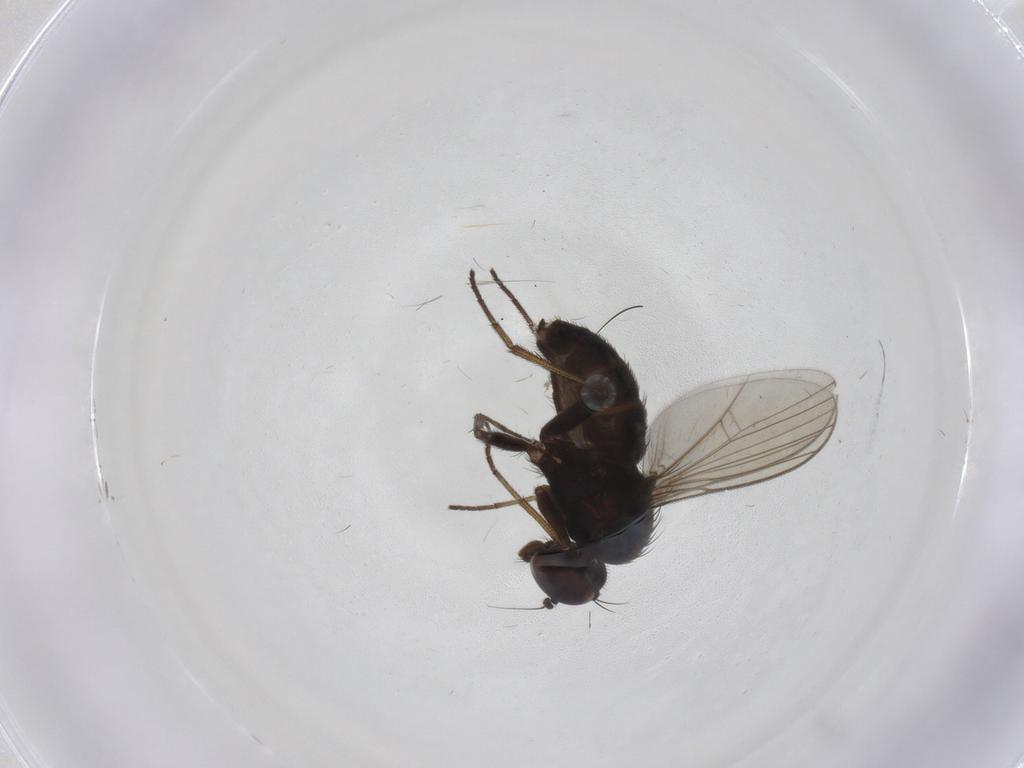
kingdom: Animalia
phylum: Arthropoda
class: Insecta
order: Diptera
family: Dolichopodidae
